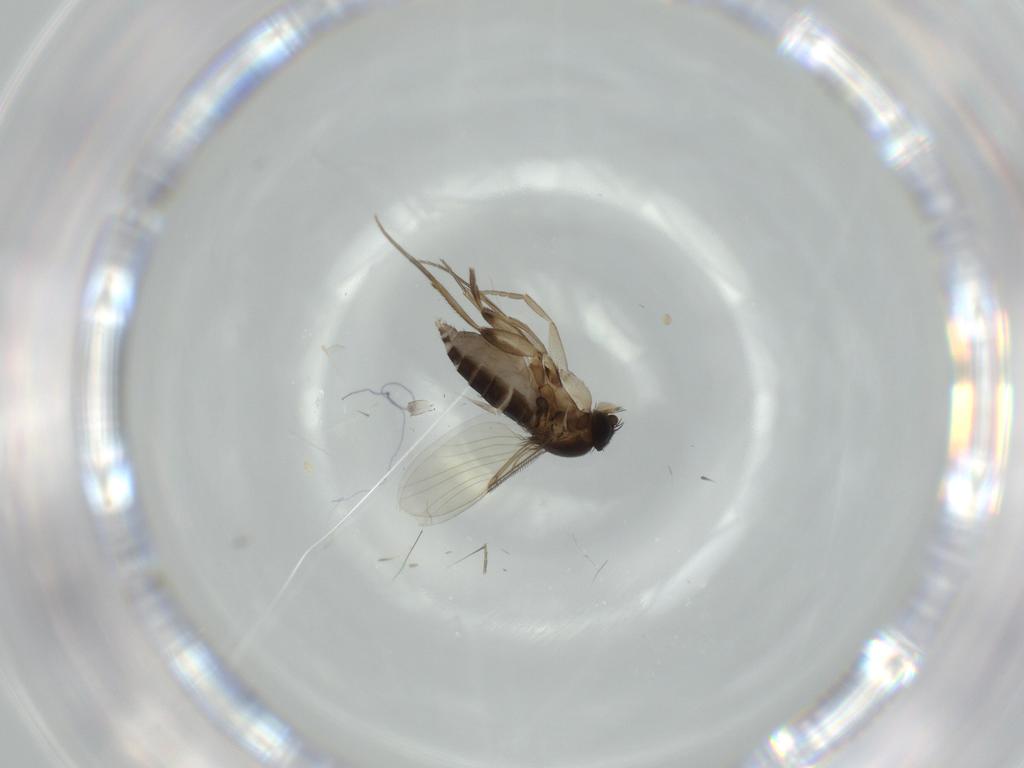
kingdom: Animalia
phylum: Arthropoda
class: Insecta
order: Diptera
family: Phoridae
